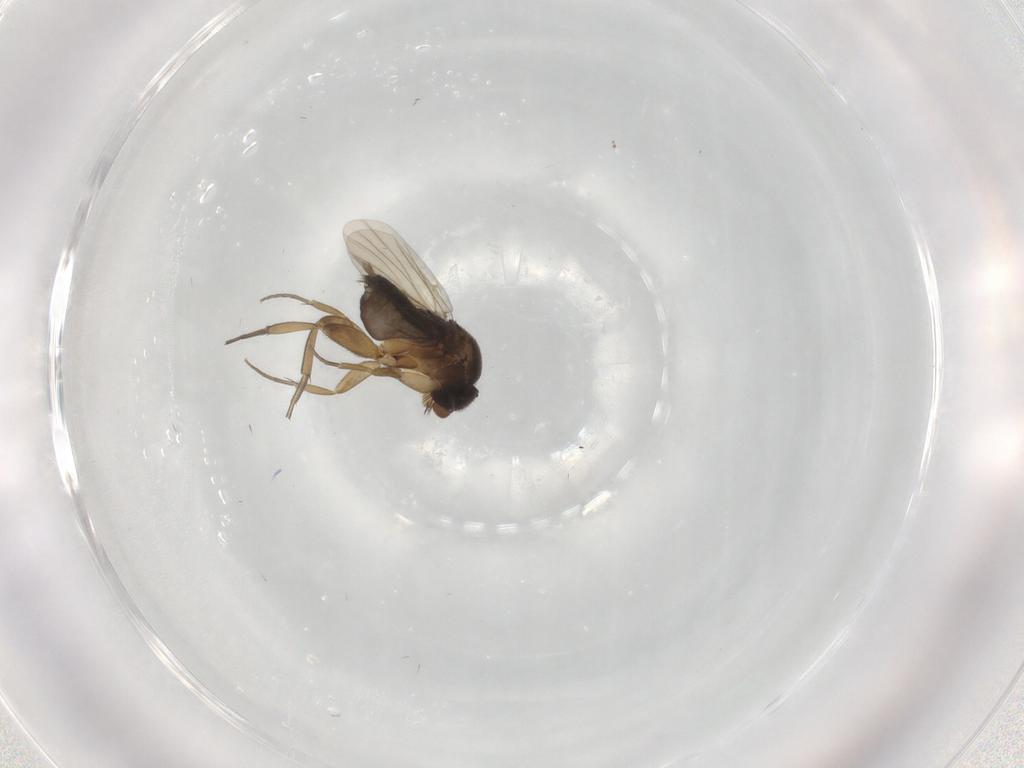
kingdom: Animalia
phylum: Arthropoda
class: Insecta
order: Diptera
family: Phoridae
